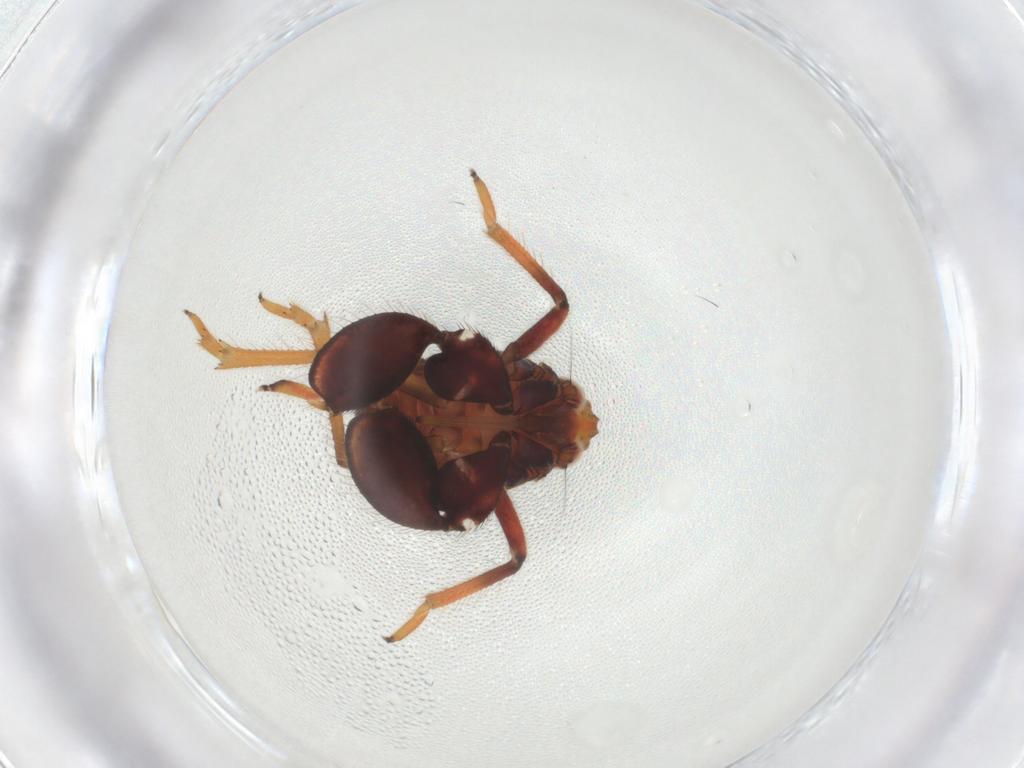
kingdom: Animalia
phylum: Arthropoda
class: Insecta
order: Hemiptera
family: Caliscelidae
